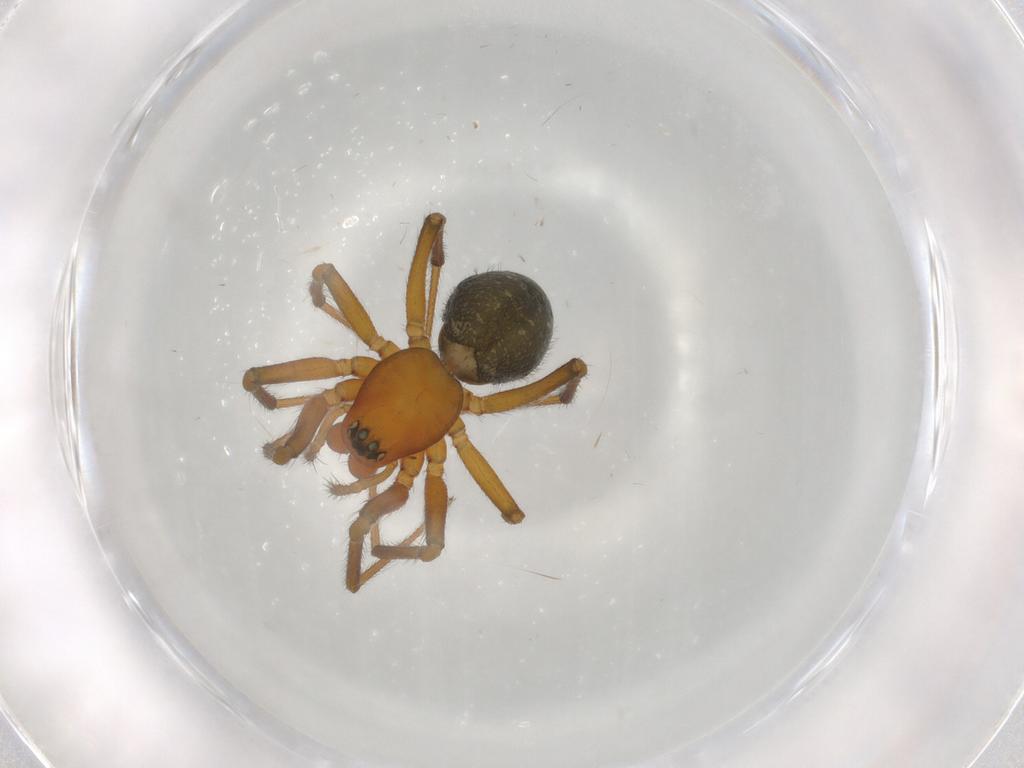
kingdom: Animalia
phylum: Arthropoda
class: Arachnida
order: Araneae
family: Linyphiidae
